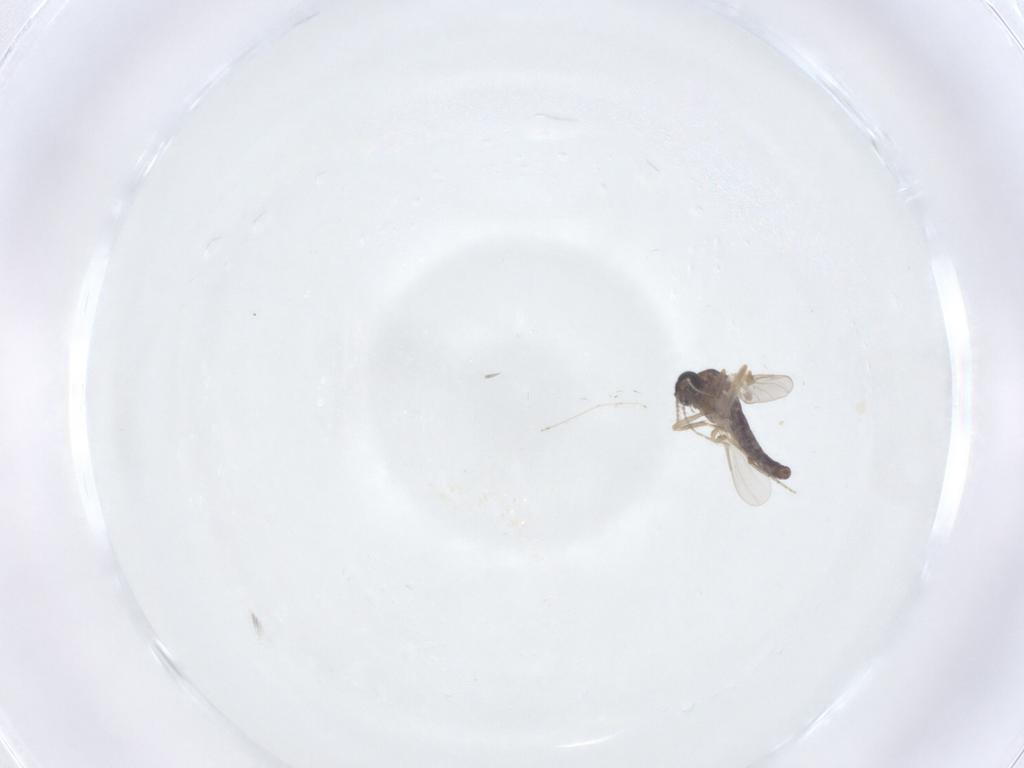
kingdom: Animalia
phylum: Arthropoda
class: Insecta
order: Diptera
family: Ceratopogonidae
